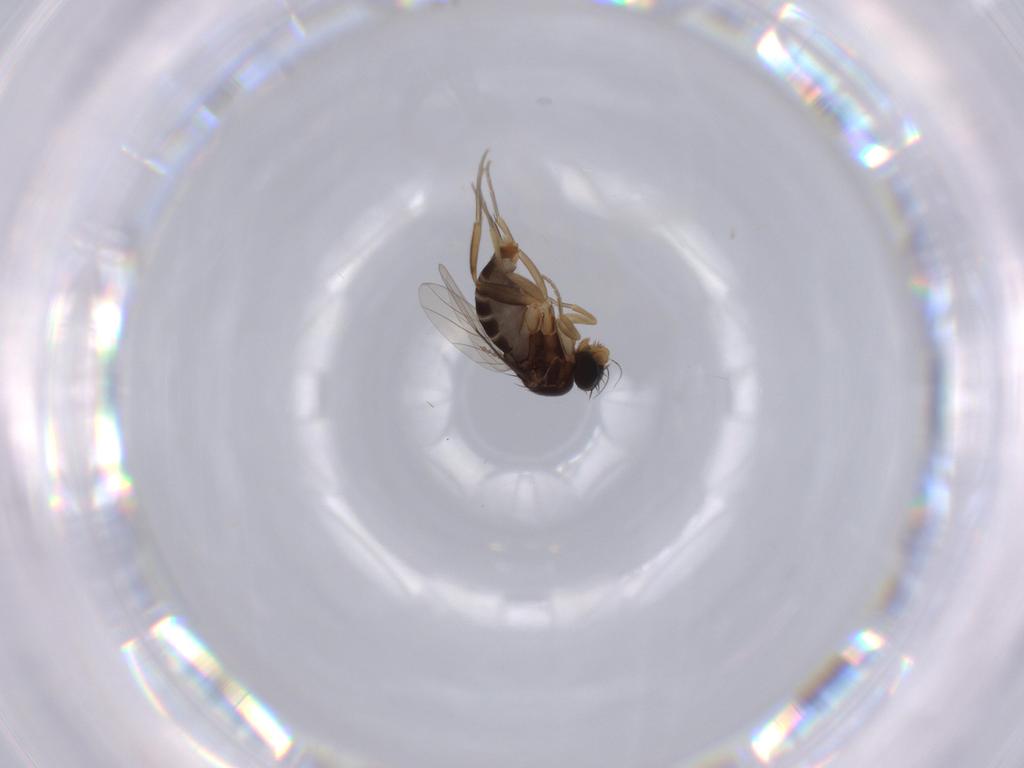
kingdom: Animalia
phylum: Arthropoda
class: Insecta
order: Diptera
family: Phoridae
